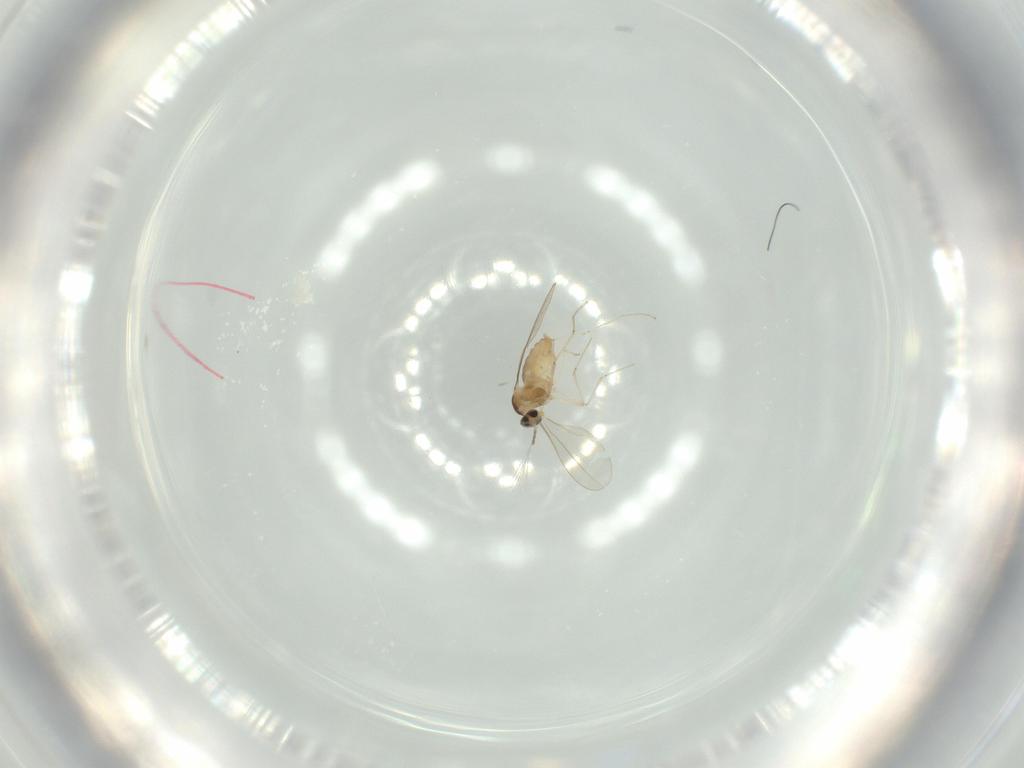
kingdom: Animalia
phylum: Arthropoda
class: Insecta
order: Diptera
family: Cecidomyiidae
